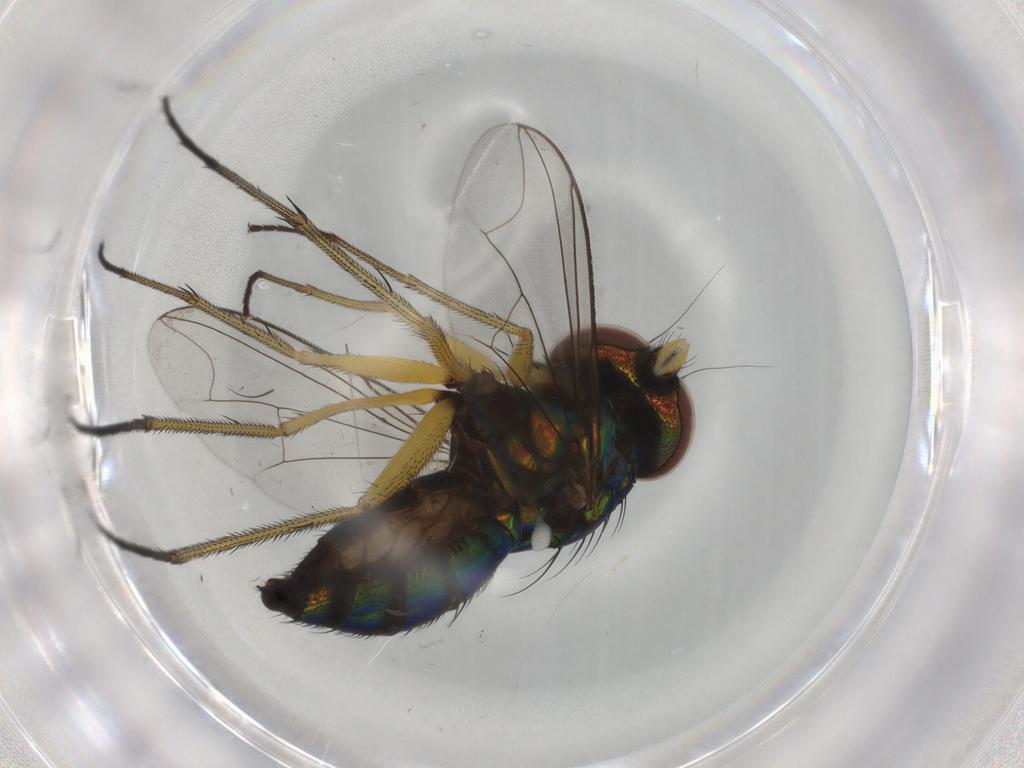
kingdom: Animalia
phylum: Arthropoda
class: Insecta
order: Diptera
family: Dolichopodidae
